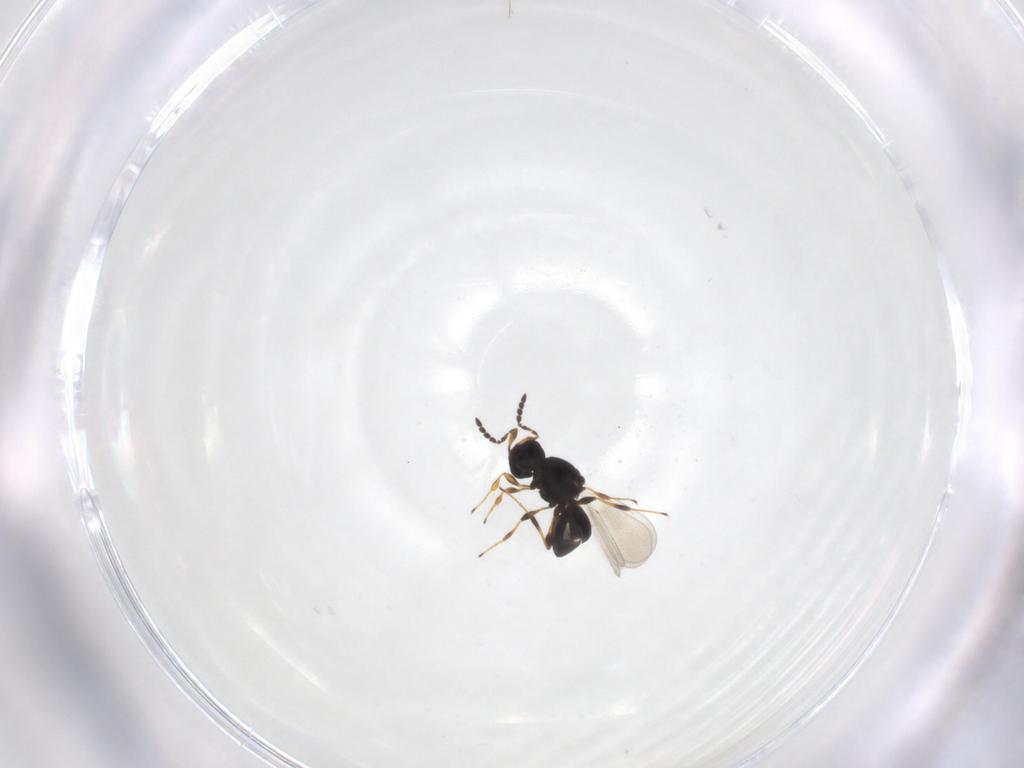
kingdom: Animalia
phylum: Arthropoda
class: Insecta
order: Hymenoptera
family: Platygastridae
